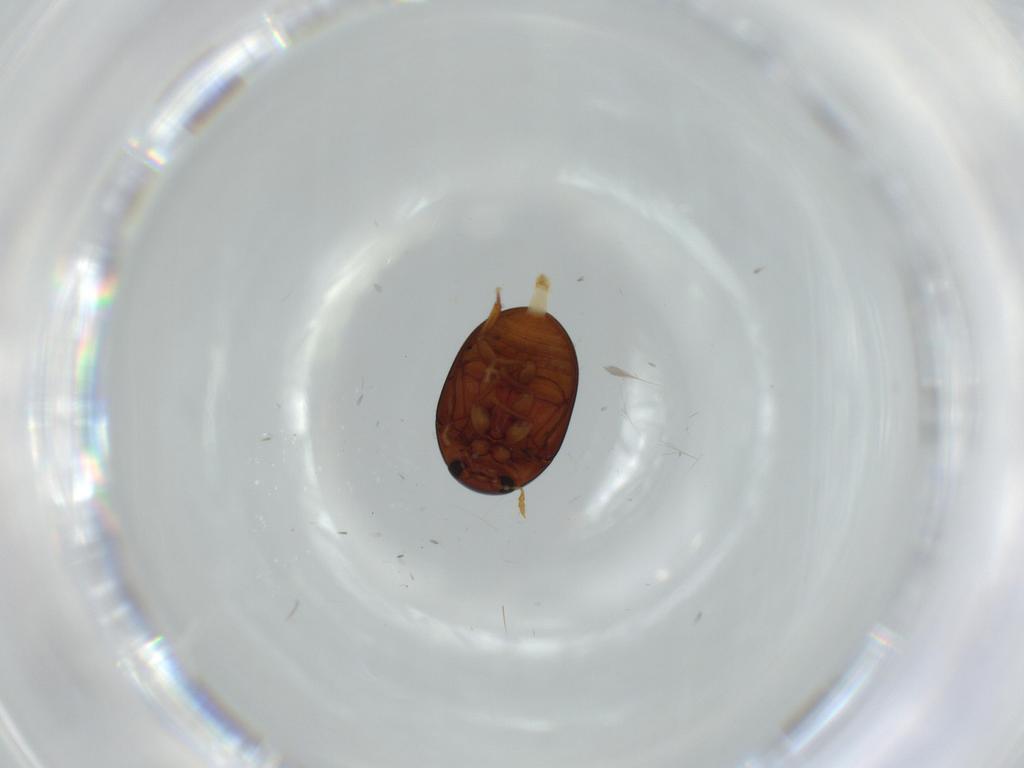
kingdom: Animalia
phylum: Arthropoda
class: Insecta
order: Coleoptera
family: Phalacridae
